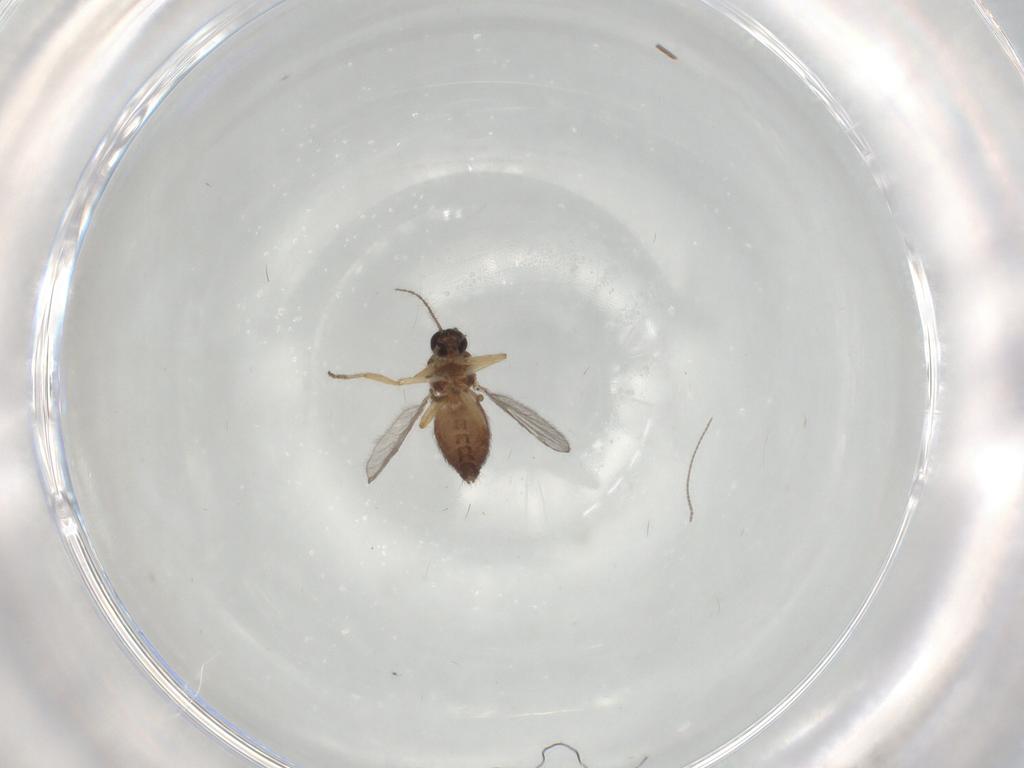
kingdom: Animalia
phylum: Arthropoda
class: Insecta
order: Diptera
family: Ceratopogonidae
